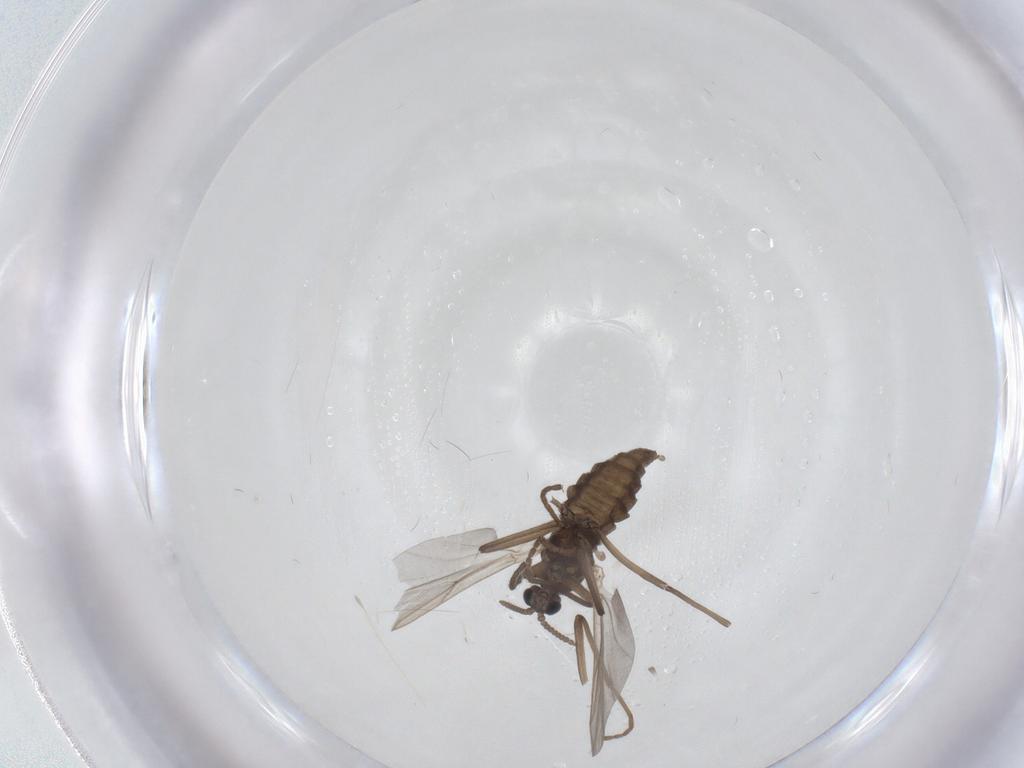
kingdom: Animalia
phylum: Arthropoda
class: Insecta
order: Diptera
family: Cecidomyiidae
